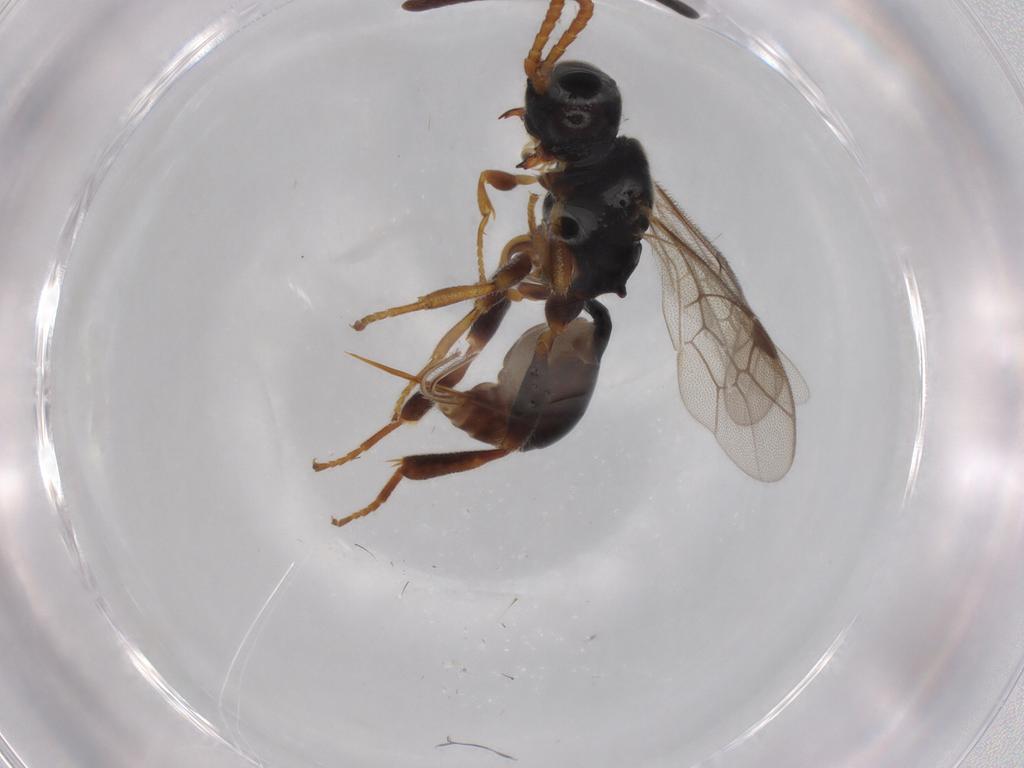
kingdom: Animalia
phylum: Arthropoda
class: Insecta
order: Hymenoptera
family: Ichneumonidae
